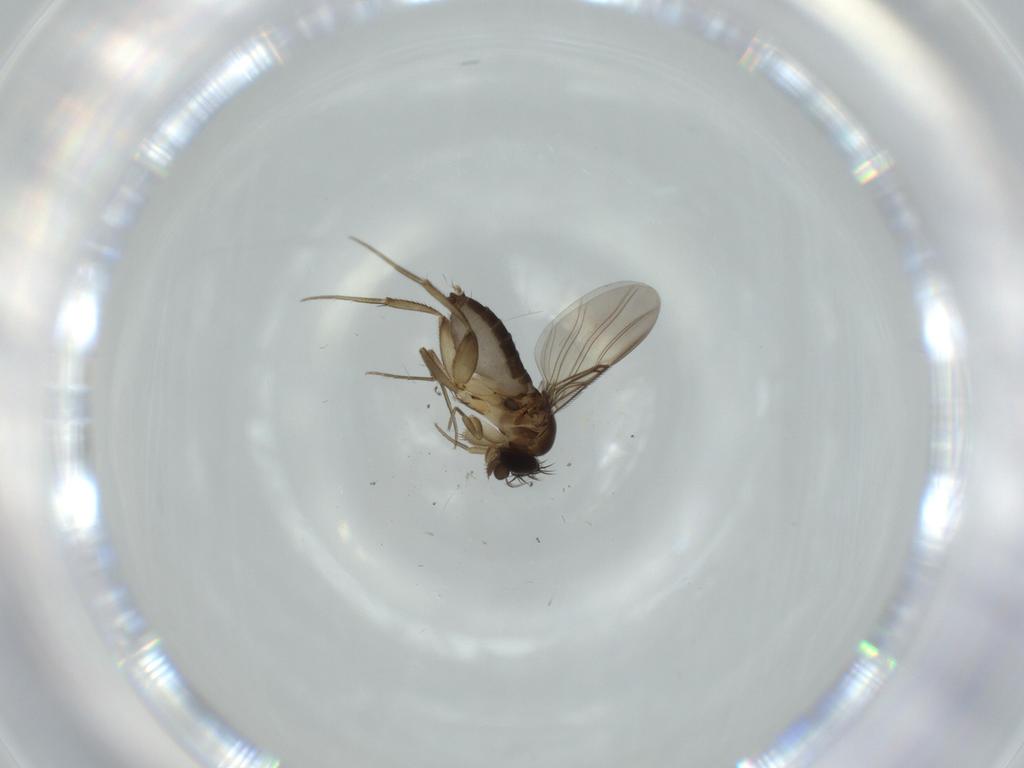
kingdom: Animalia
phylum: Arthropoda
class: Insecta
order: Diptera
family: Phoridae
